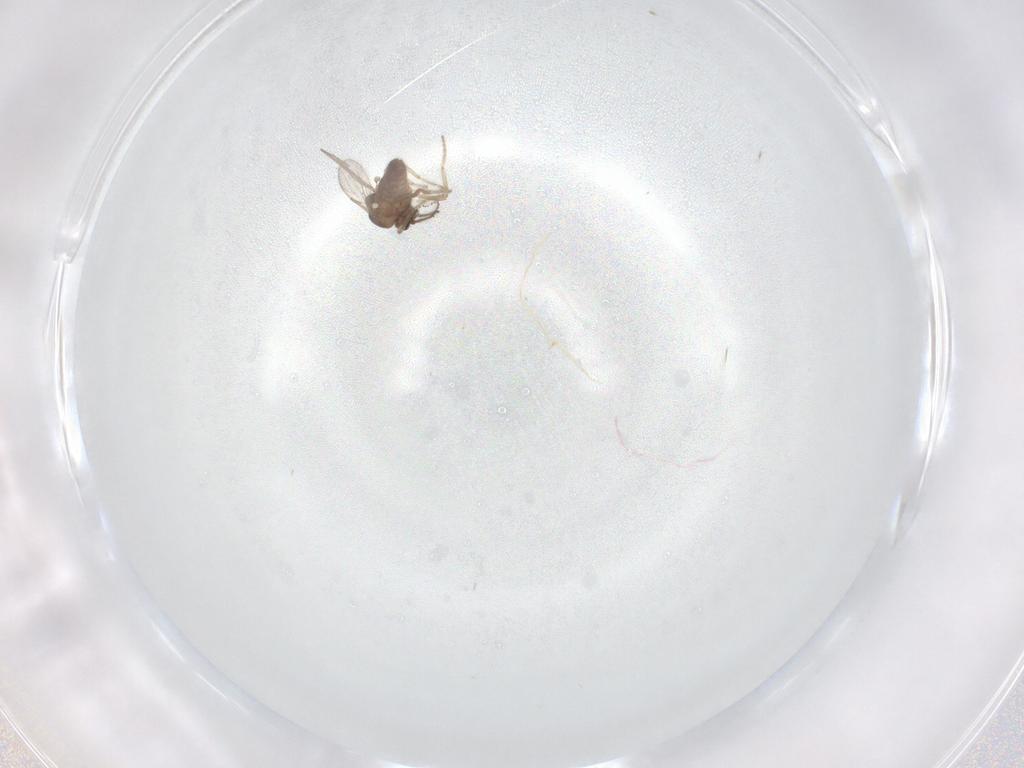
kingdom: Animalia
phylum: Arthropoda
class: Insecta
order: Diptera
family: Ceratopogonidae
